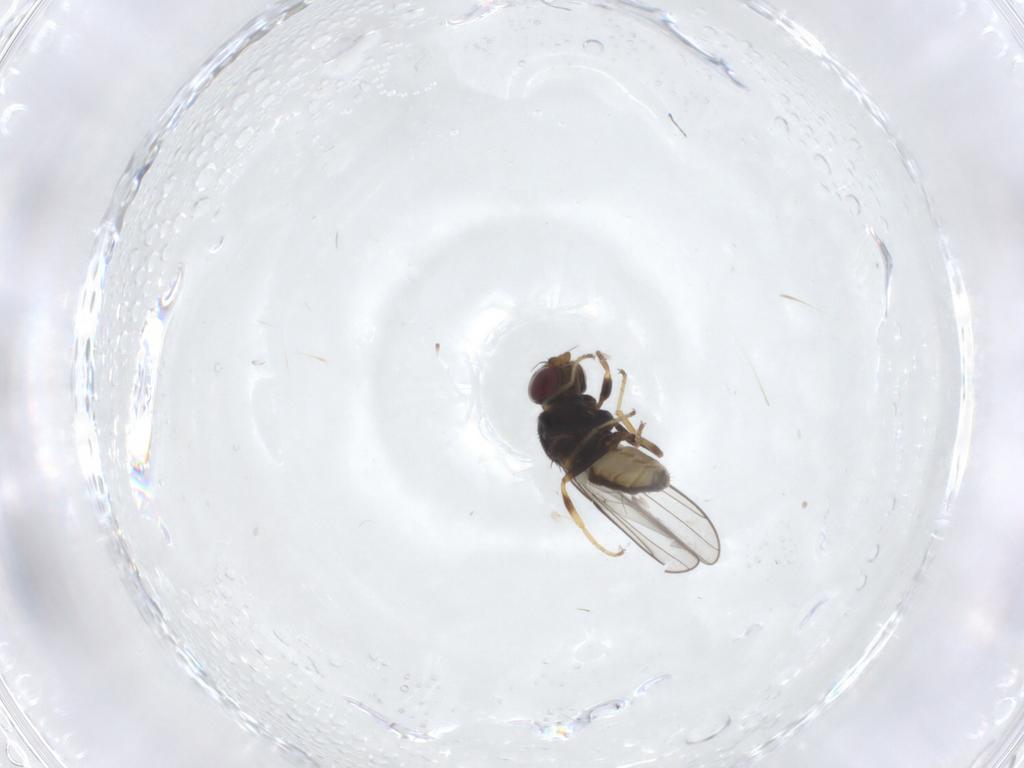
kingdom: Animalia
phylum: Arthropoda
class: Insecta
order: Diptera
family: Chloropidae
